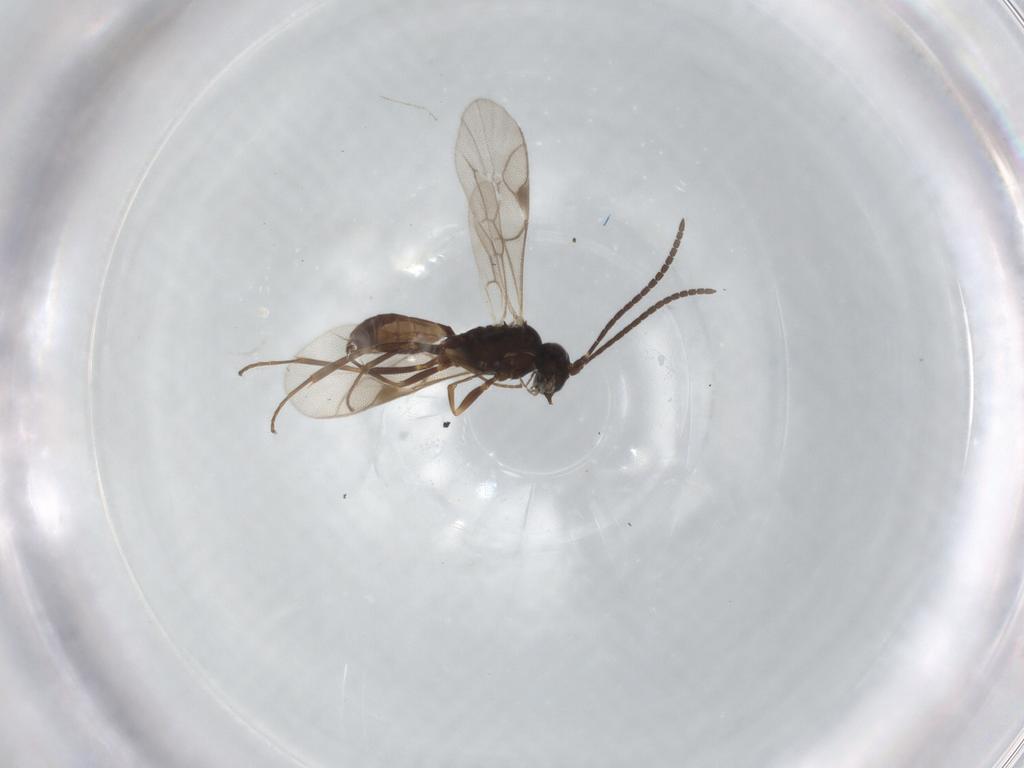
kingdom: Animalia
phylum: Arthropoda
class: Insecta
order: Hymenoptera
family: Ichneumonidae
